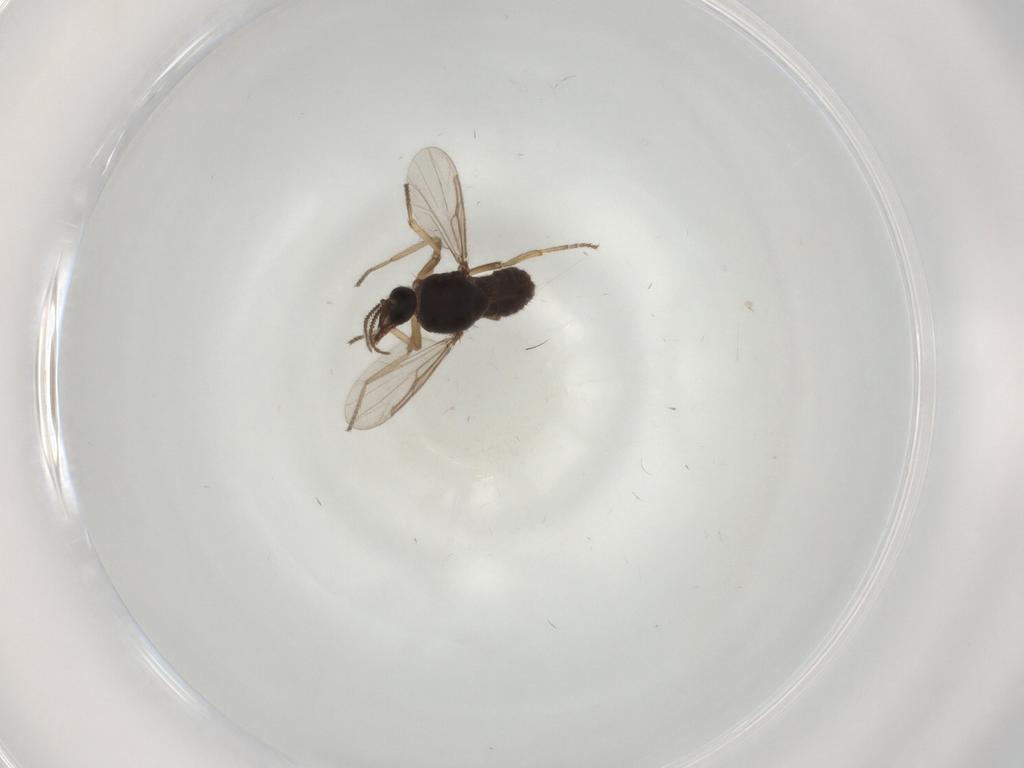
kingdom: Animalia
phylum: Arthropoda
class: Insecta
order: Diptera
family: Ceratopogonidae
